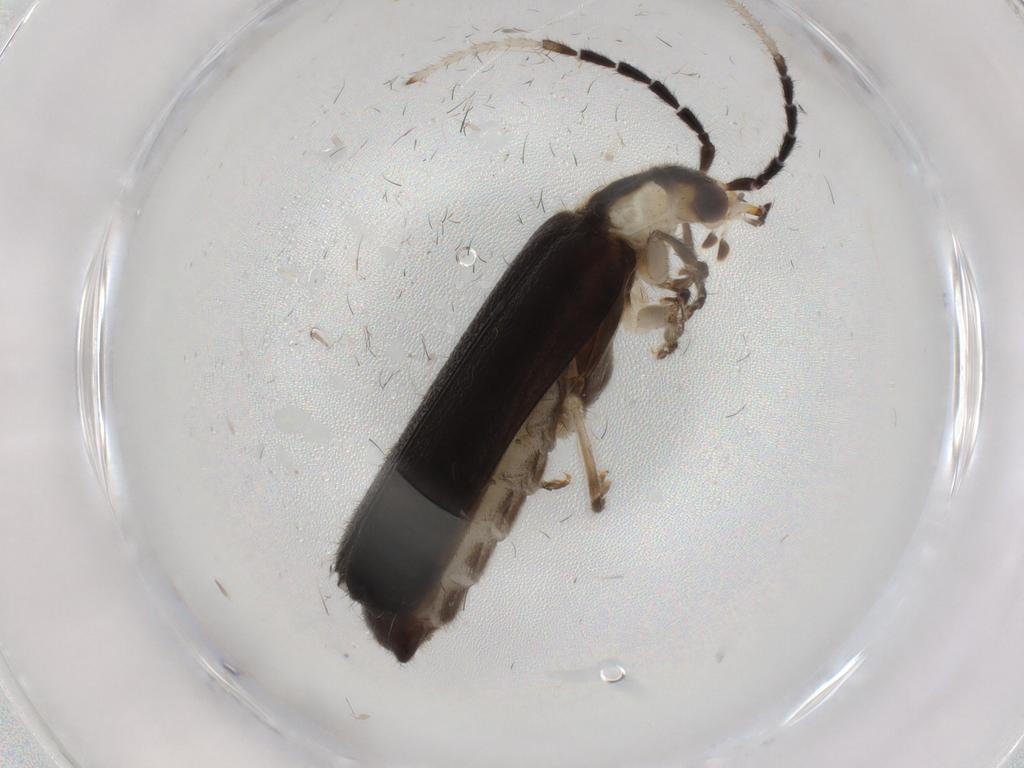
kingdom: Animalia
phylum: Arthropoda
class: Insecta
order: Coleoptera
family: Cantharidae
